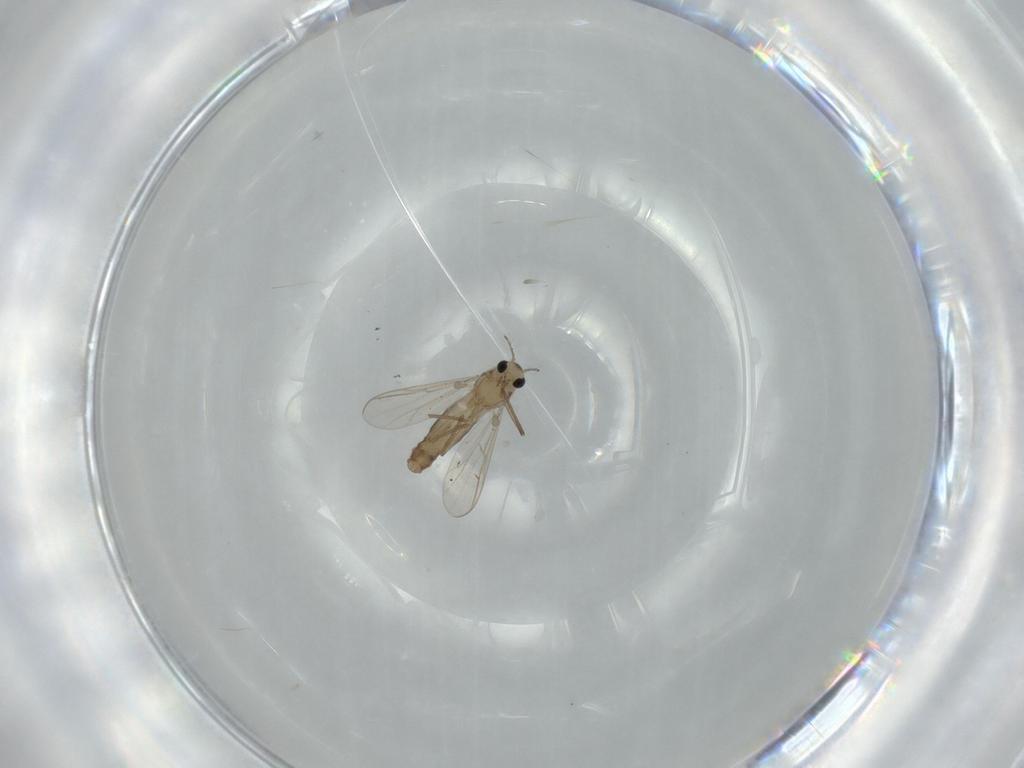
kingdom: Animalia
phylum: Arthropoda
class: Insecta
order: Diptera
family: Chironomidae
